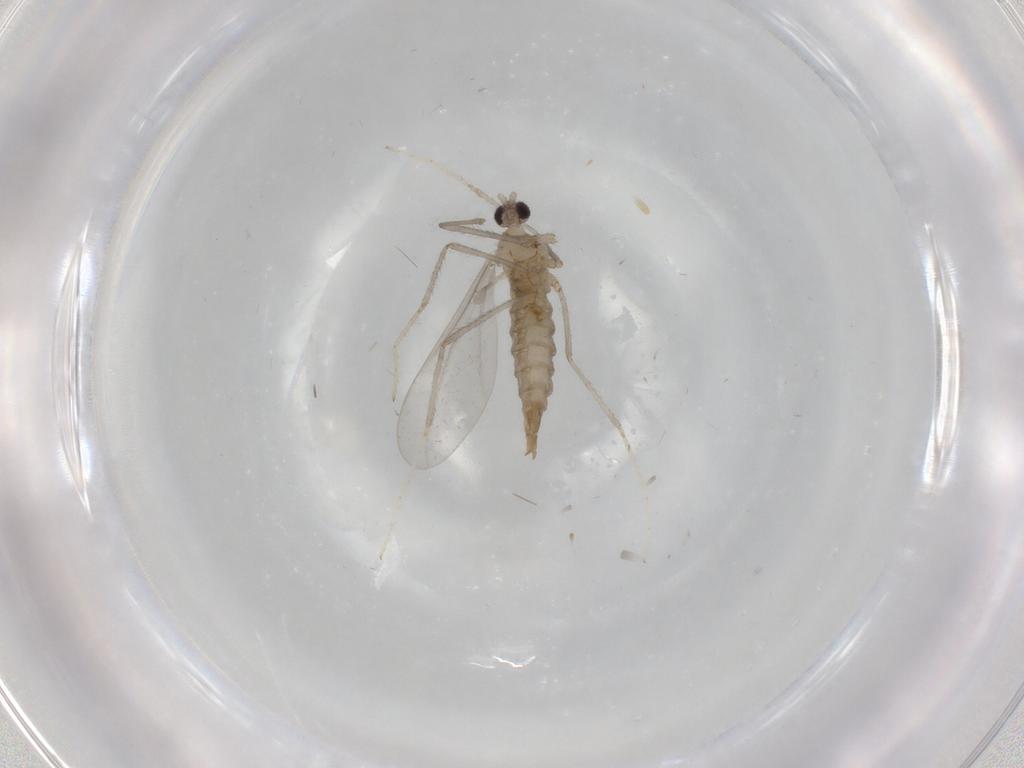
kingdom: Animalia
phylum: Arthropoda
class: Insecta
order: Diptera
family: Cecidomyiidae
